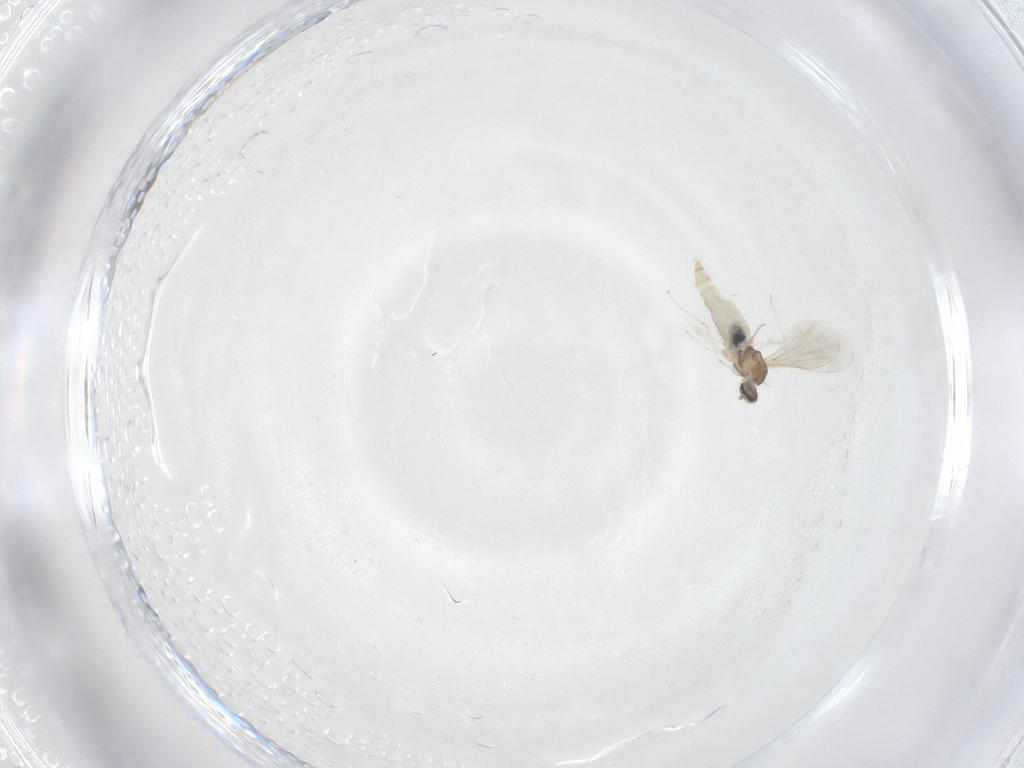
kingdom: Animalia
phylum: Arthropoda
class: Insecta
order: Diptera
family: Cecidomyiidae
